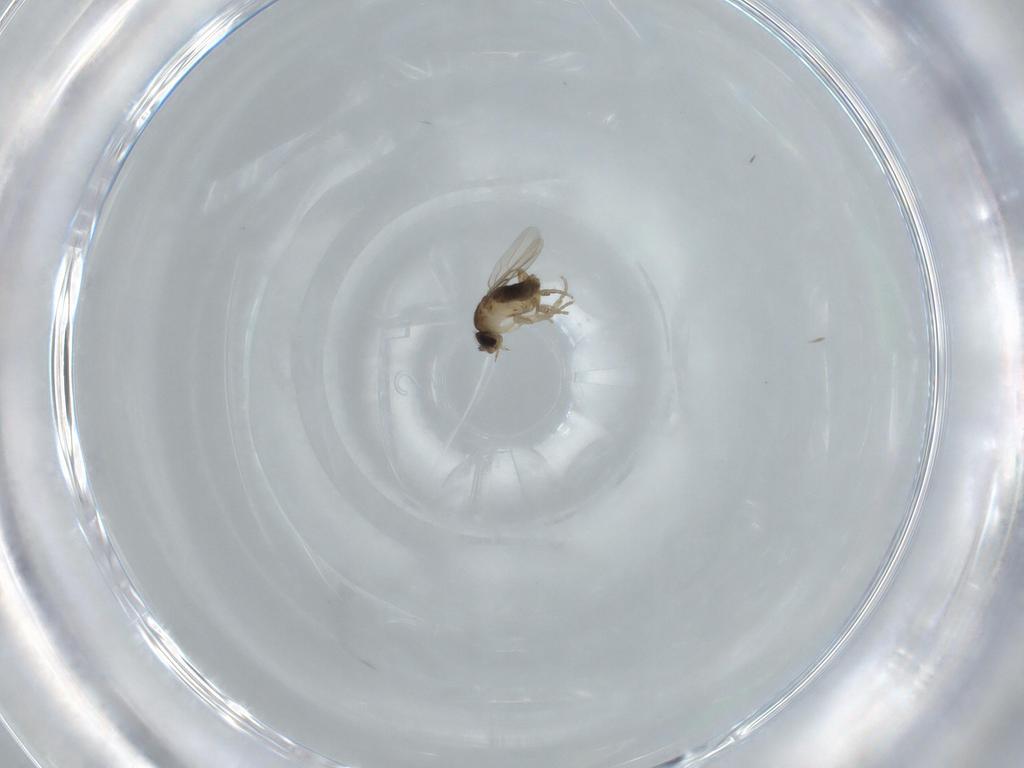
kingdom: Animalia
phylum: Arthropoda
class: Insecta
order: Diptera
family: Phoridae
